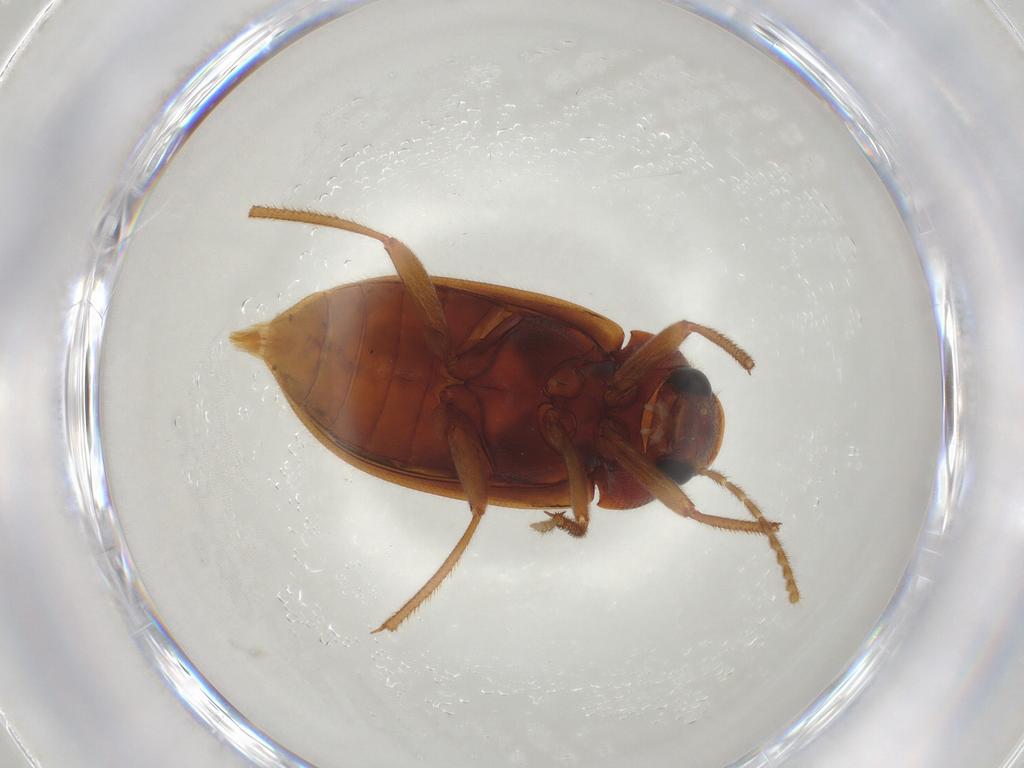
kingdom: Animalia
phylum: Arthropoda
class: Insecta
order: Coleoptera
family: Ptilodactylidae
